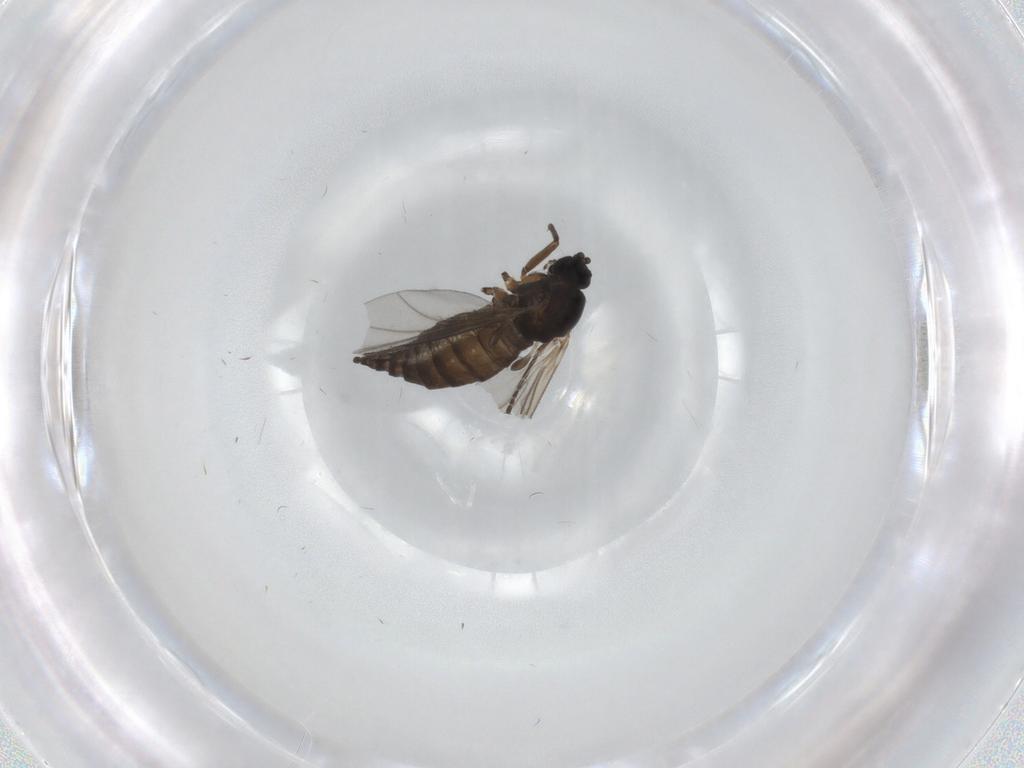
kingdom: Animalia
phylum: Arthropoda
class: Insecta
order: Diptera
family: Sciaridae
